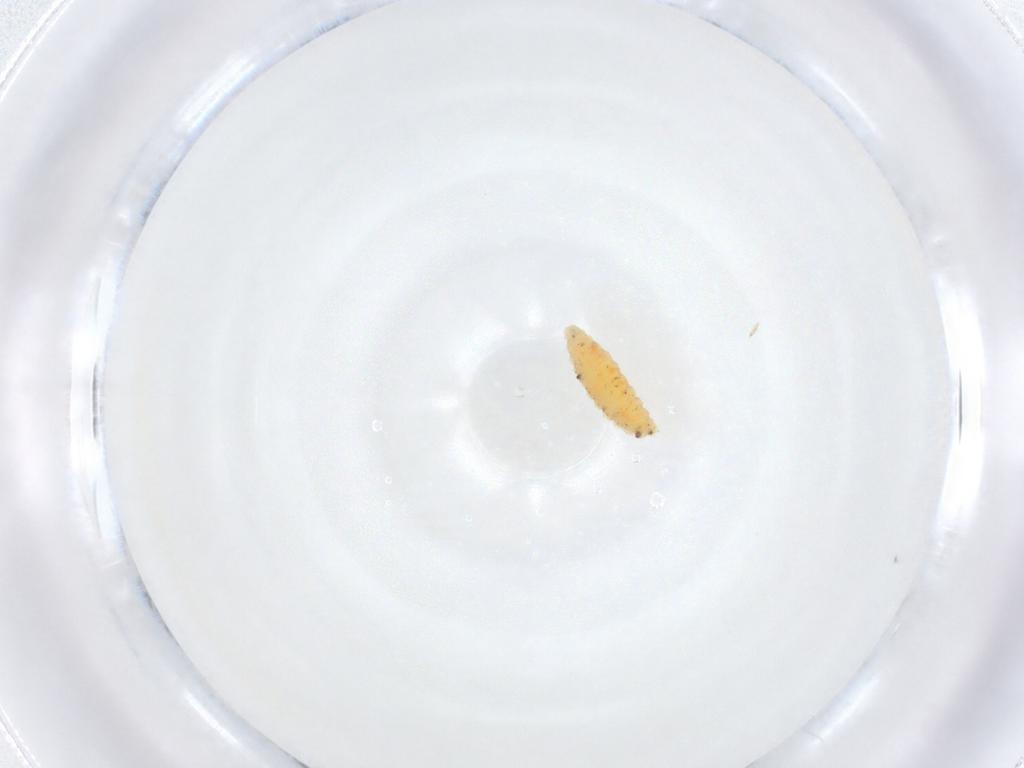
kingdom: Animalia
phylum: Arthropoda
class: Insecta
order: Diptera
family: Cecidomyiidae
